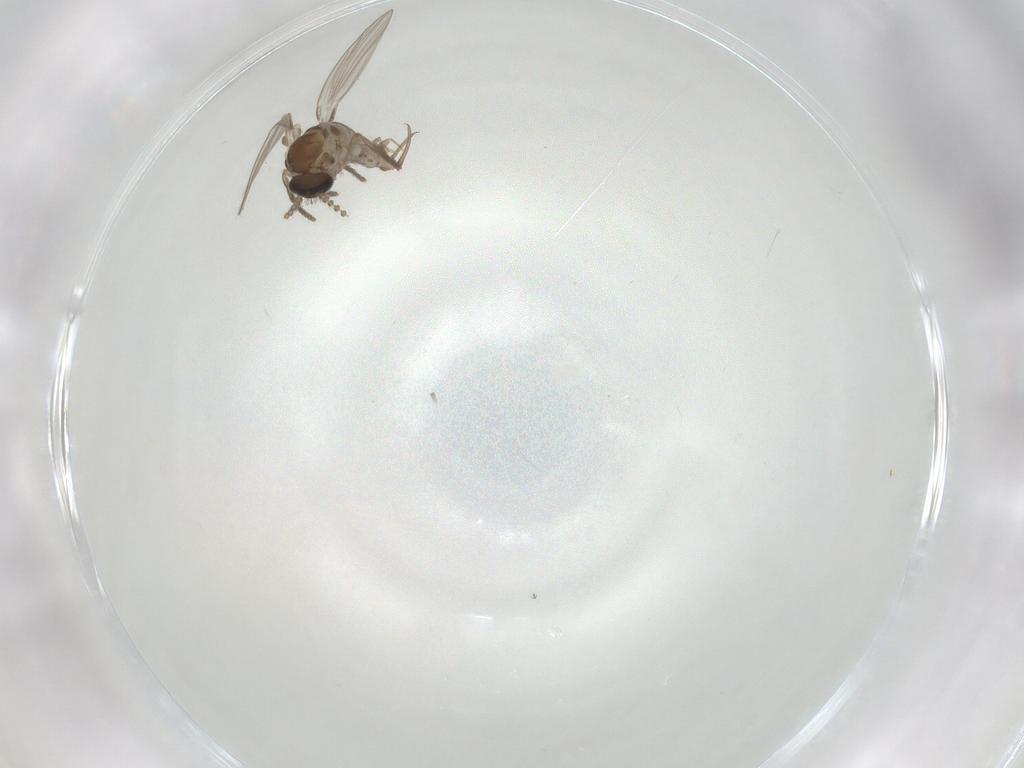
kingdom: Animalia
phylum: Arthropoda
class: Insecta
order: Diptera
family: Psychodidae
